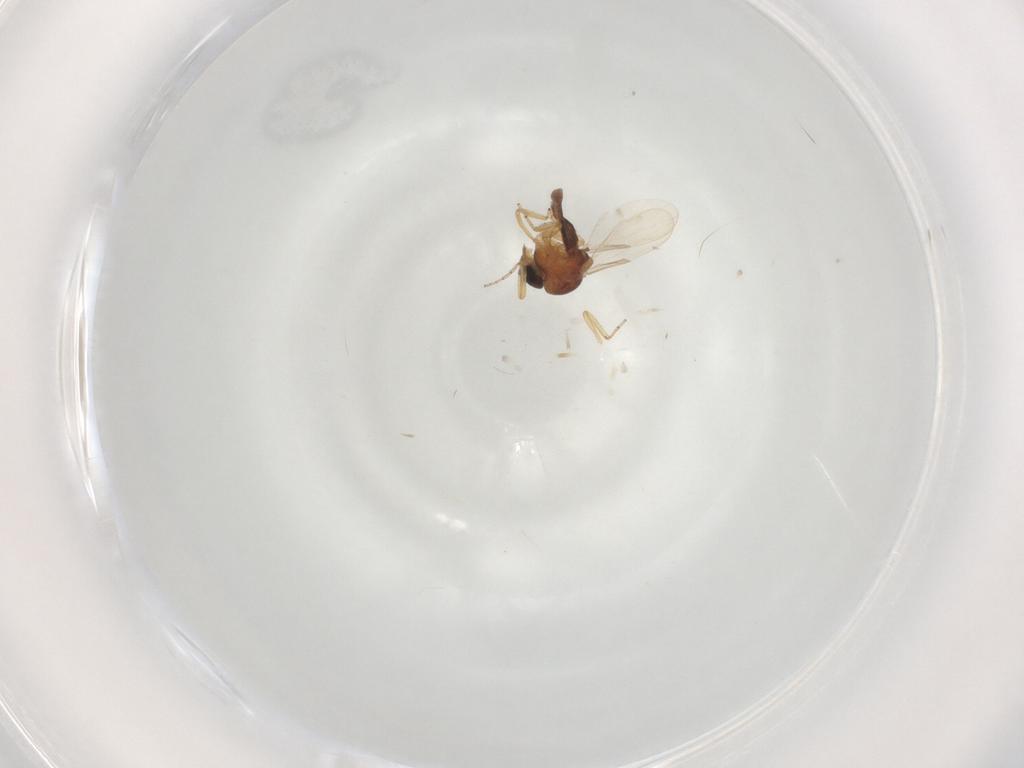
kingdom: Animalia
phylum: Arthropoda
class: Insecta
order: Diptera
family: Ceratopogonidae
